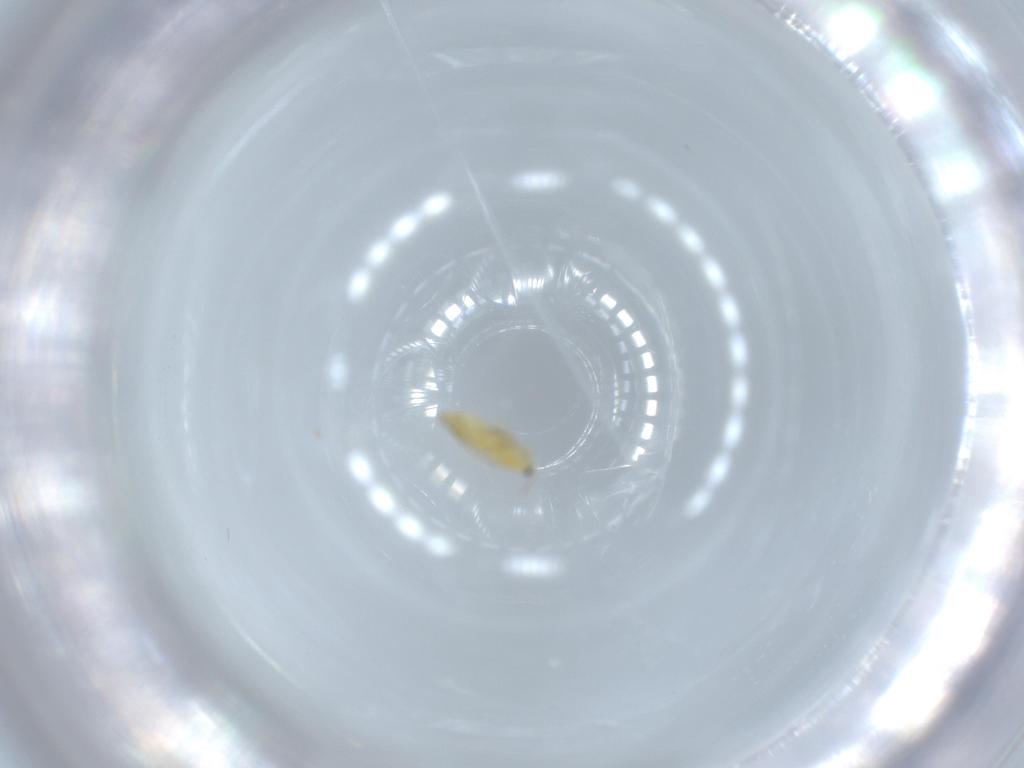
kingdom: Animalia
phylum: Arthropoda
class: Insecta
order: Thysanoptera
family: Thripidae
